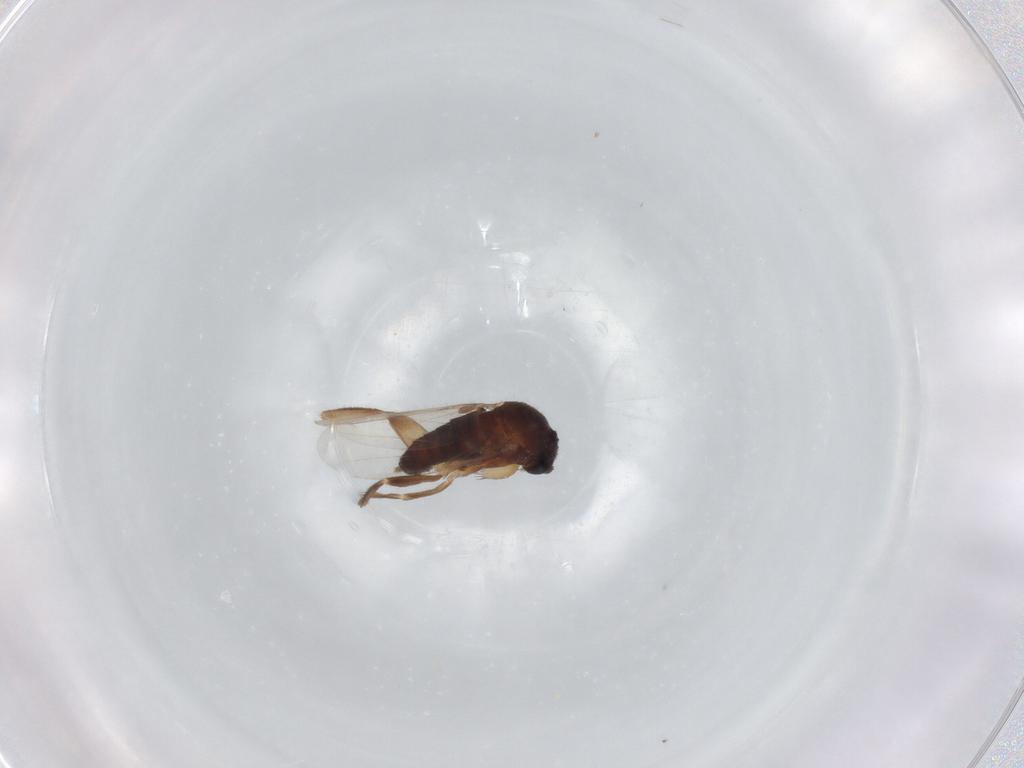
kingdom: Animalia
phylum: Arthropoda
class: Insecta
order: Diptera
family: Phoridae
